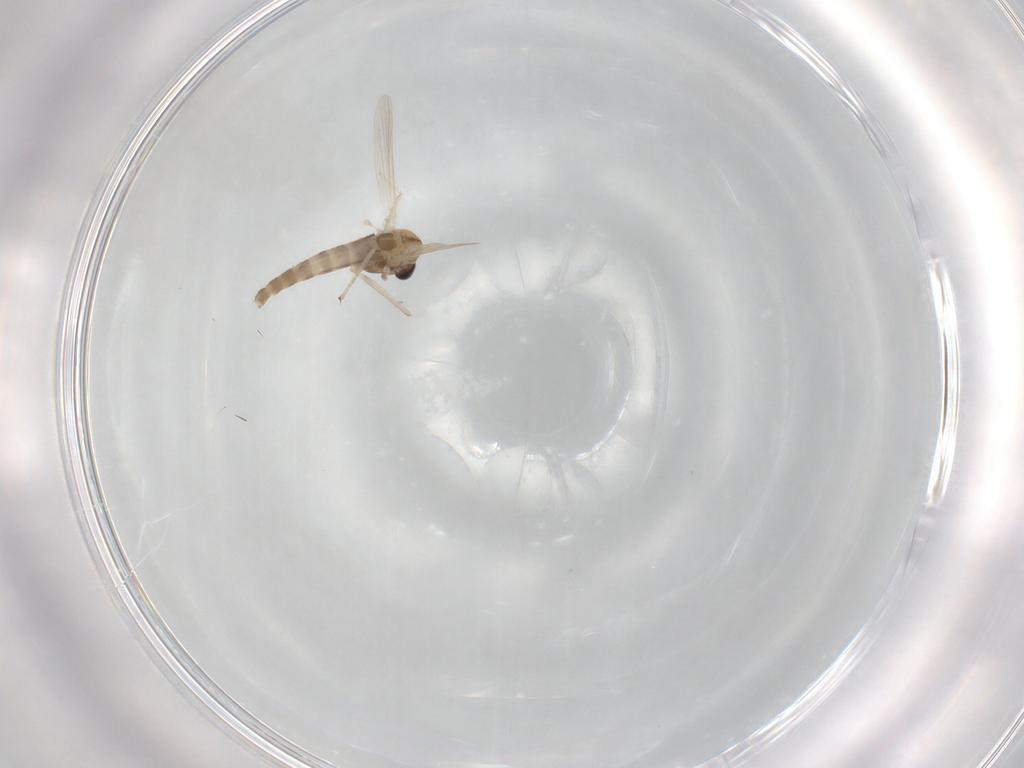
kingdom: Animalia
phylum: Arthropoda
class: Insecta
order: Diptera
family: Chironomidae
